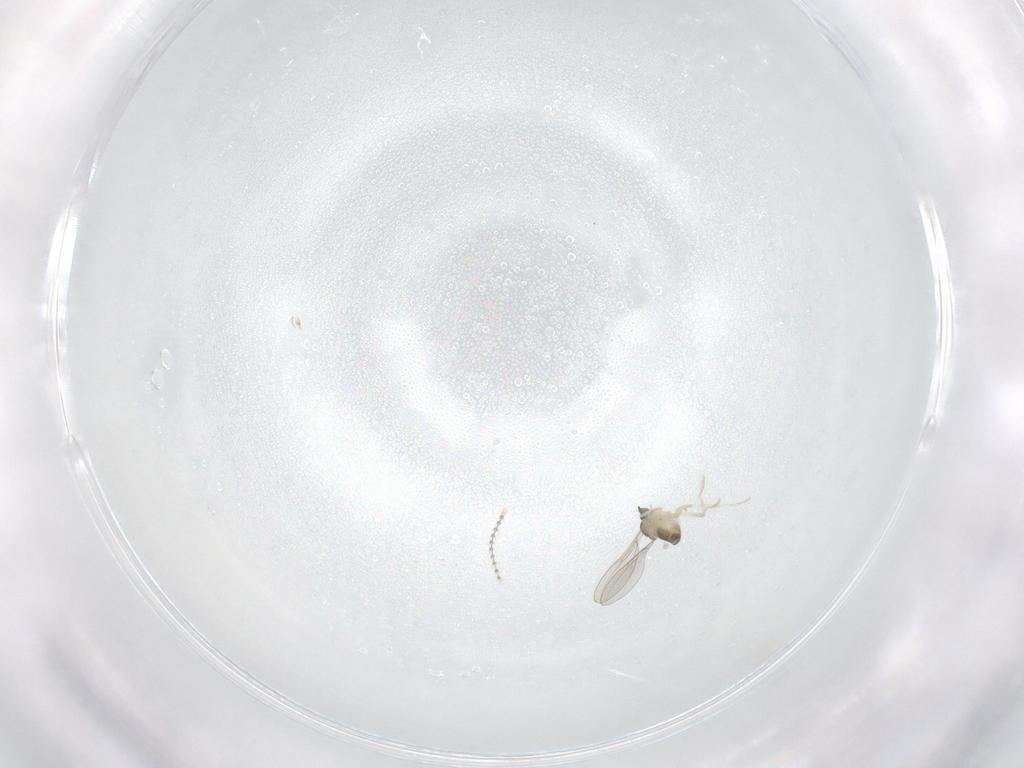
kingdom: Animalia
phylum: Arthropoda
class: Insecta
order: Diptera
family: Cecidomyiidae
